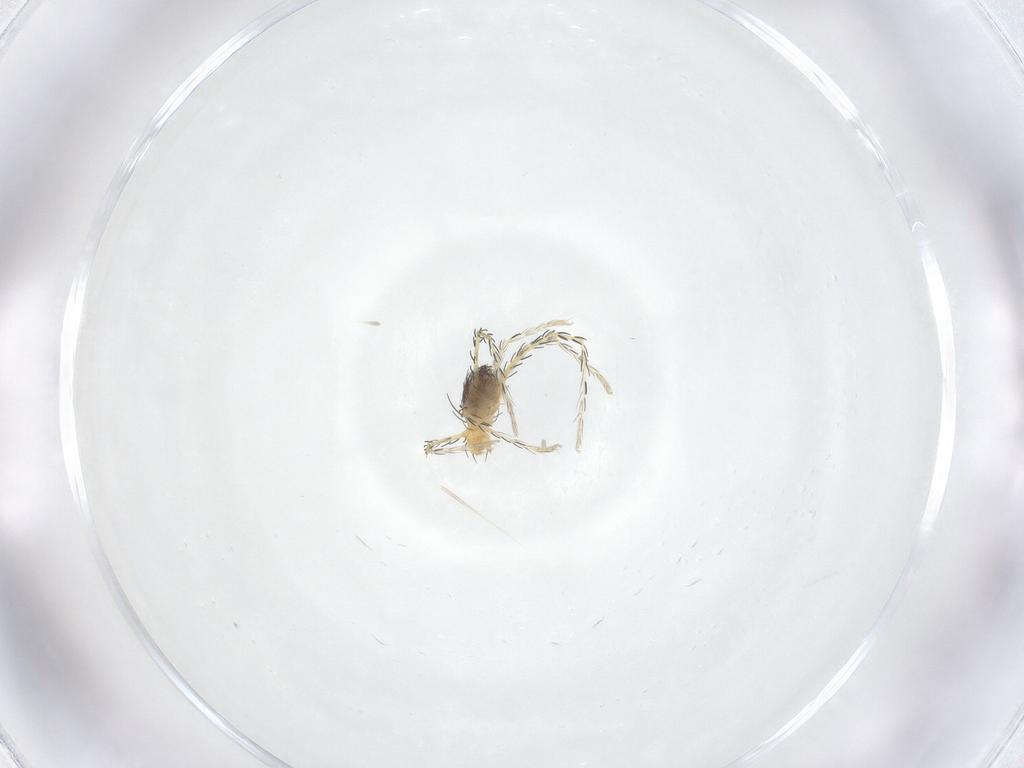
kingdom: Animalia
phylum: Arthropoda
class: Arachnida
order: Trombidiformes
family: Erythraeidae
